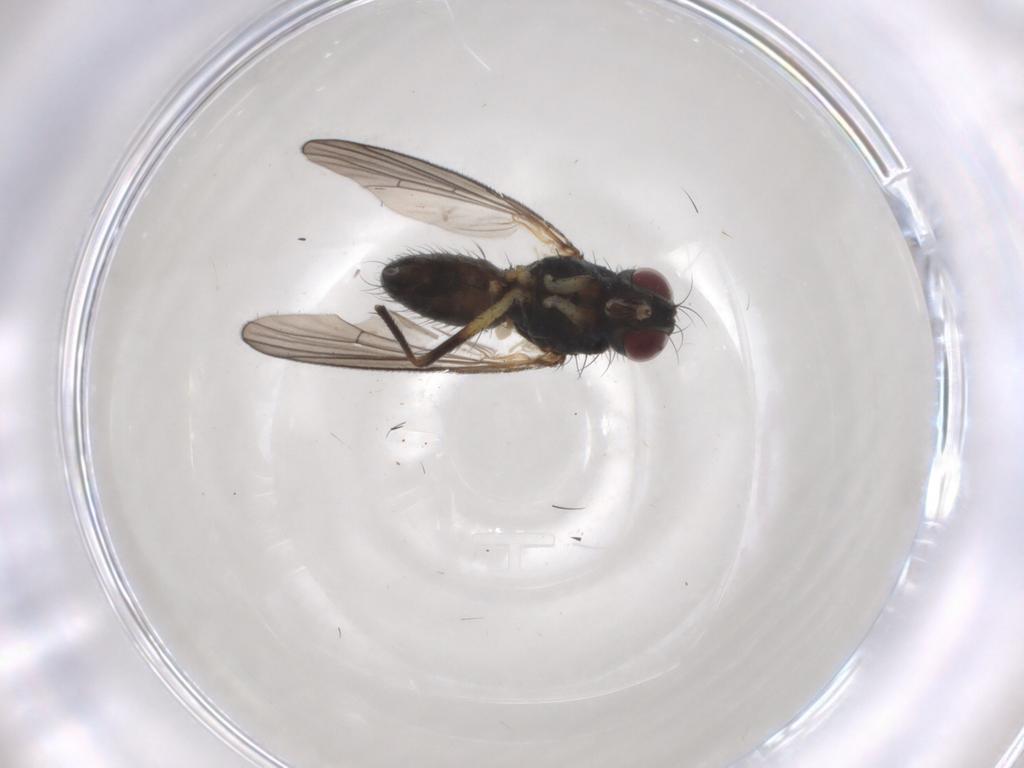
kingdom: Animalia
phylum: Arthropoda
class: Insecta
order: Diptera
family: Muscidae
